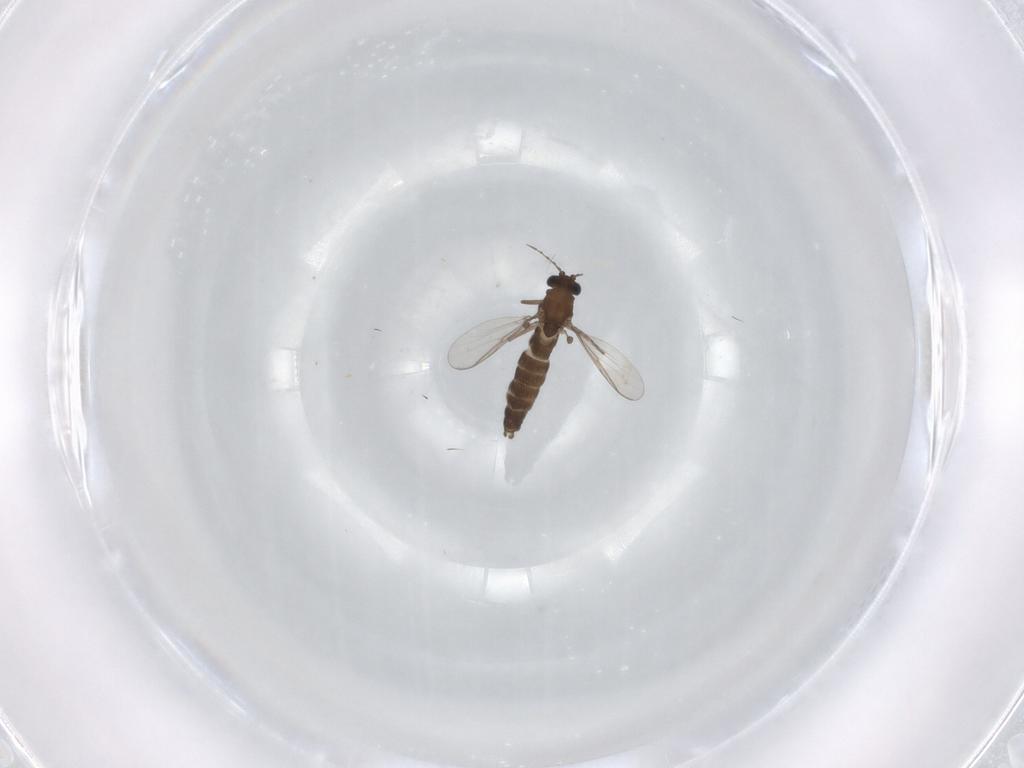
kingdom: Animalia
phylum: Arthropoda
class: Insecta
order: Diptera
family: Chironomidae
